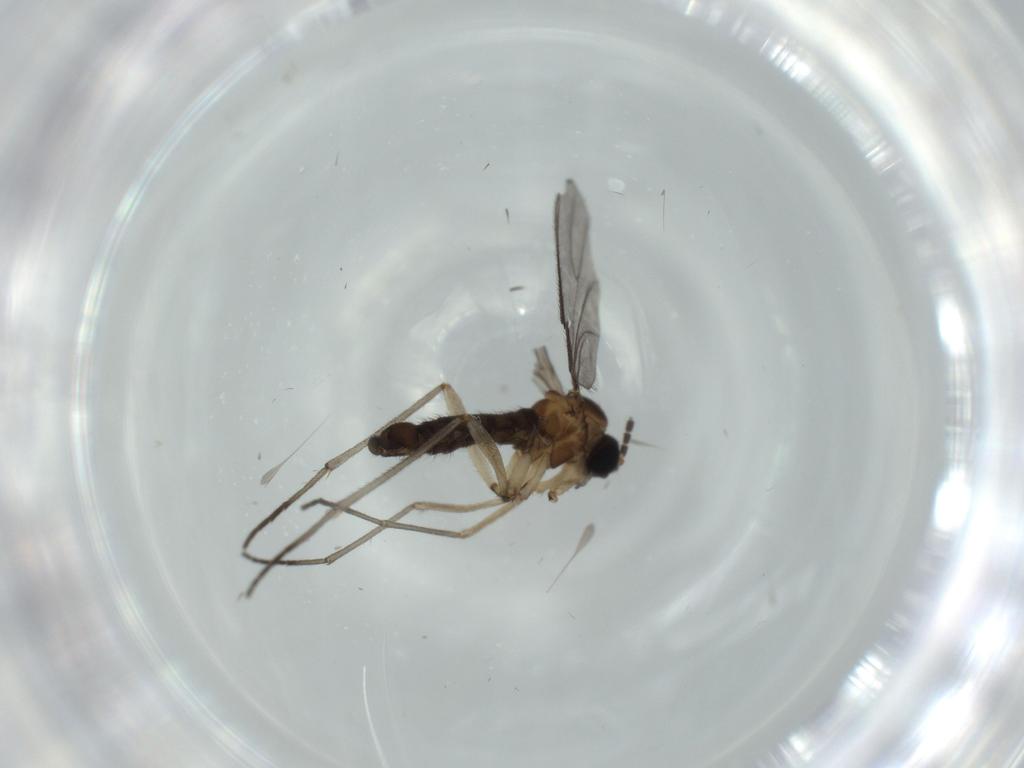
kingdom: Animalia
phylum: Arthropoda
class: Insecta
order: Diptera
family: Sciaridae
